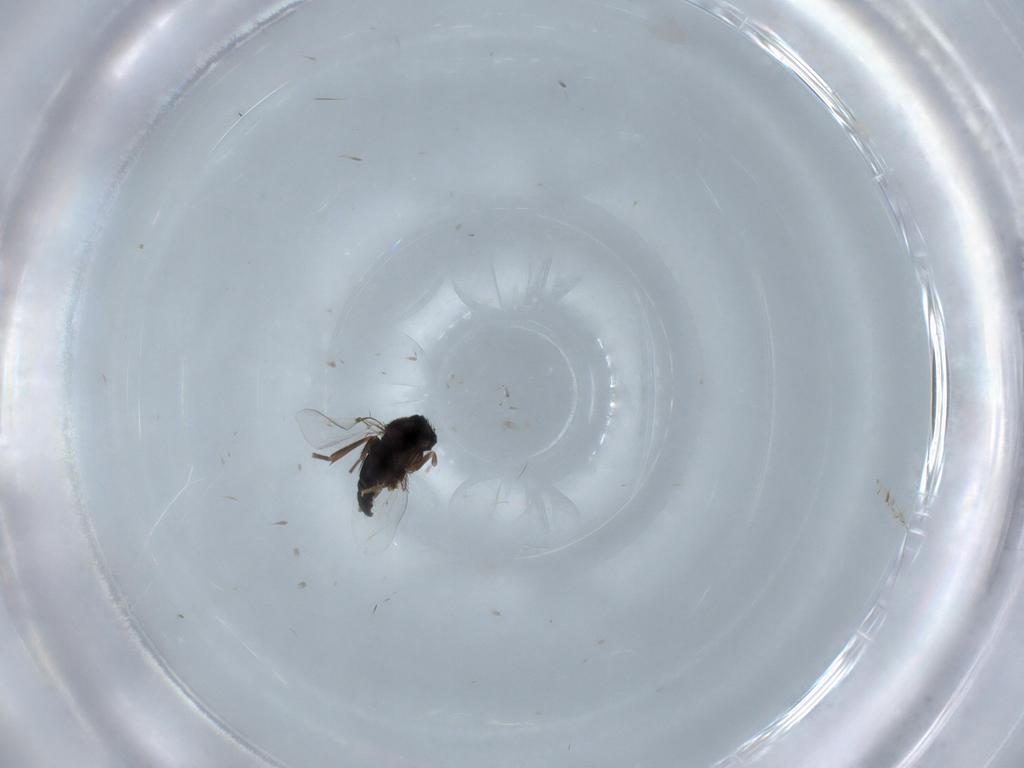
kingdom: Animalia
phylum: Arthropoda
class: Insecta
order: Diptera
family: Phoridae
